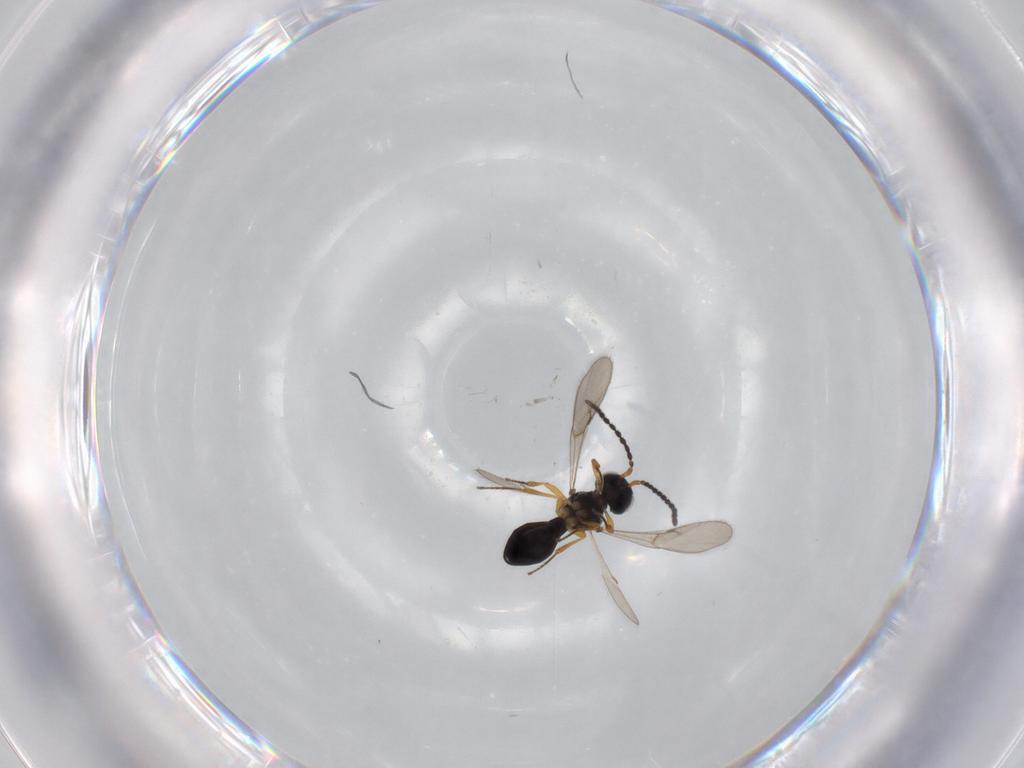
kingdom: Animalia
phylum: Arthropoda
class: Insecta
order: Hymenoptera
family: Scelionidae
